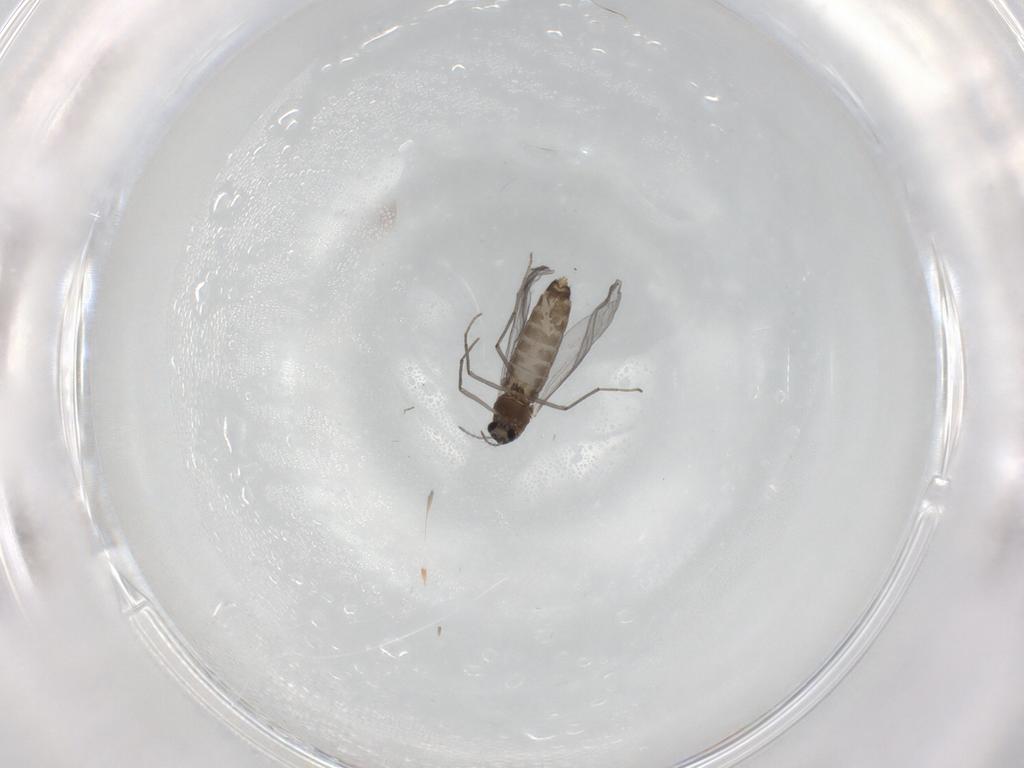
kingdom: Animalia
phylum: Arthropoda
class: Insecta
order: Diptera
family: Chironomidae
